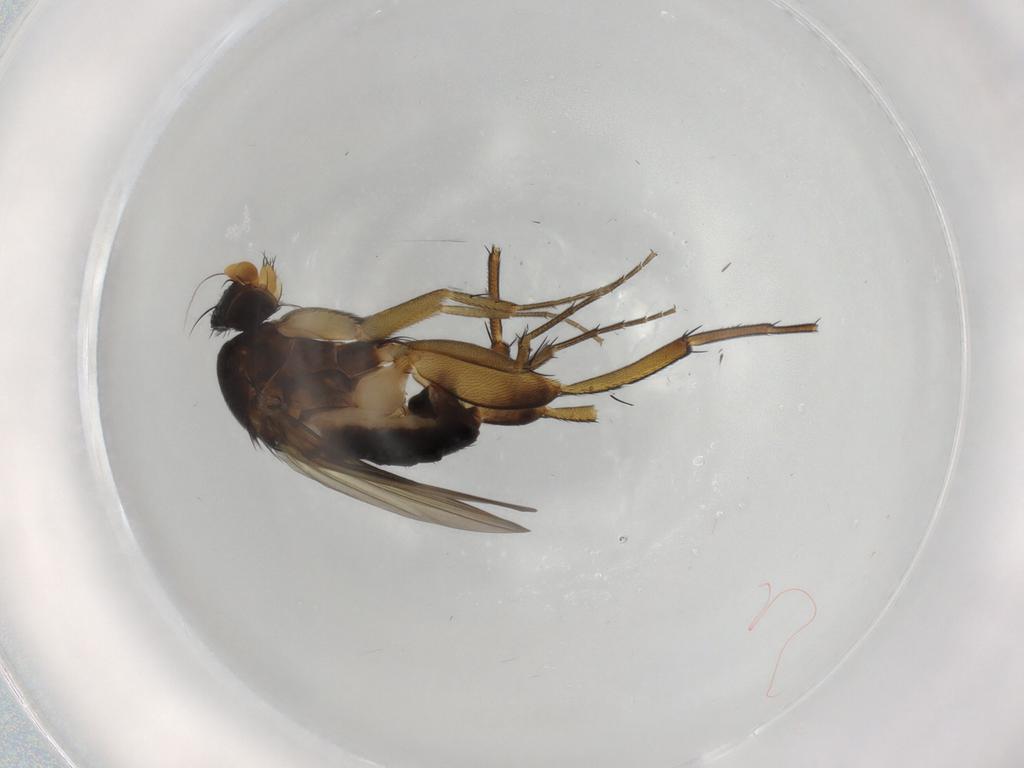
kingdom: Animalia
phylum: Arthropoda
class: Insecta
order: Diptera
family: Phoridae
